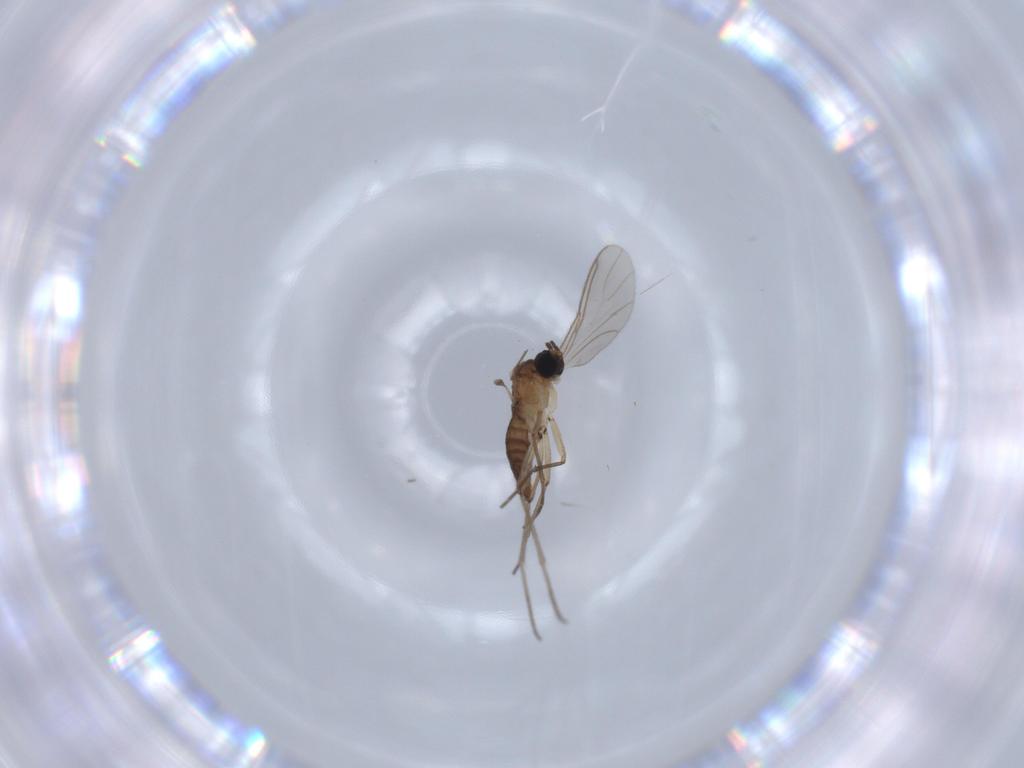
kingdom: Animalia
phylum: Arthropoda
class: Insecta
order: Diptera
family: Sciaridae
